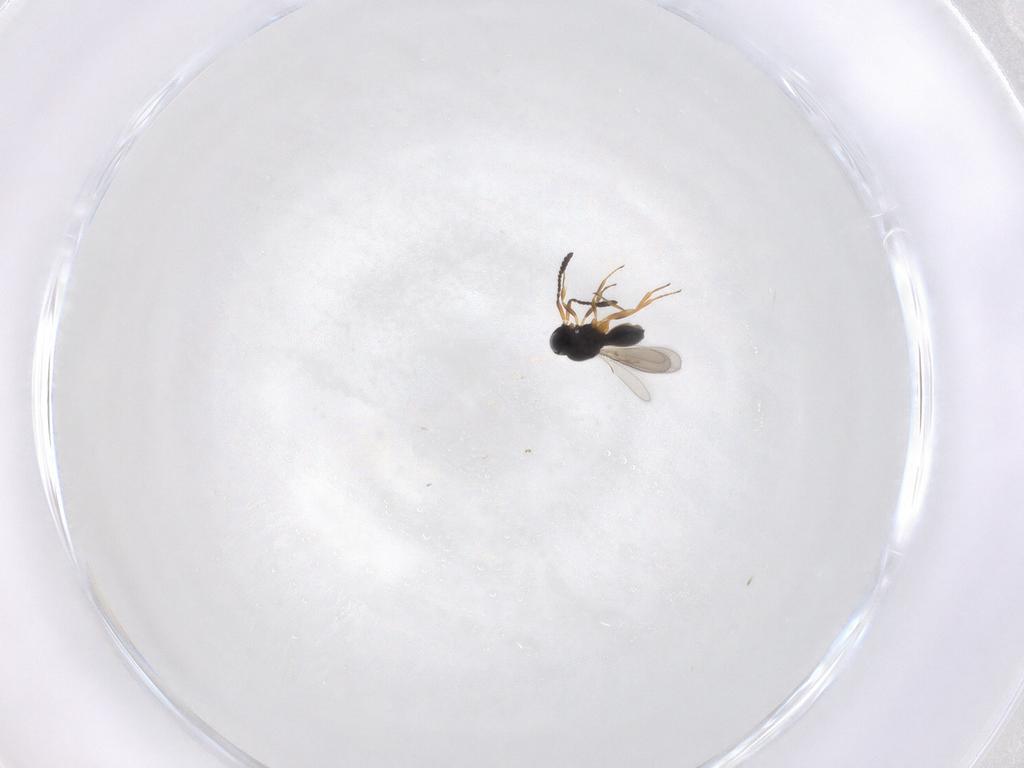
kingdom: Animalia
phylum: Arthropoda
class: Insecta
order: Hymenoptera
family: Scelionidae
